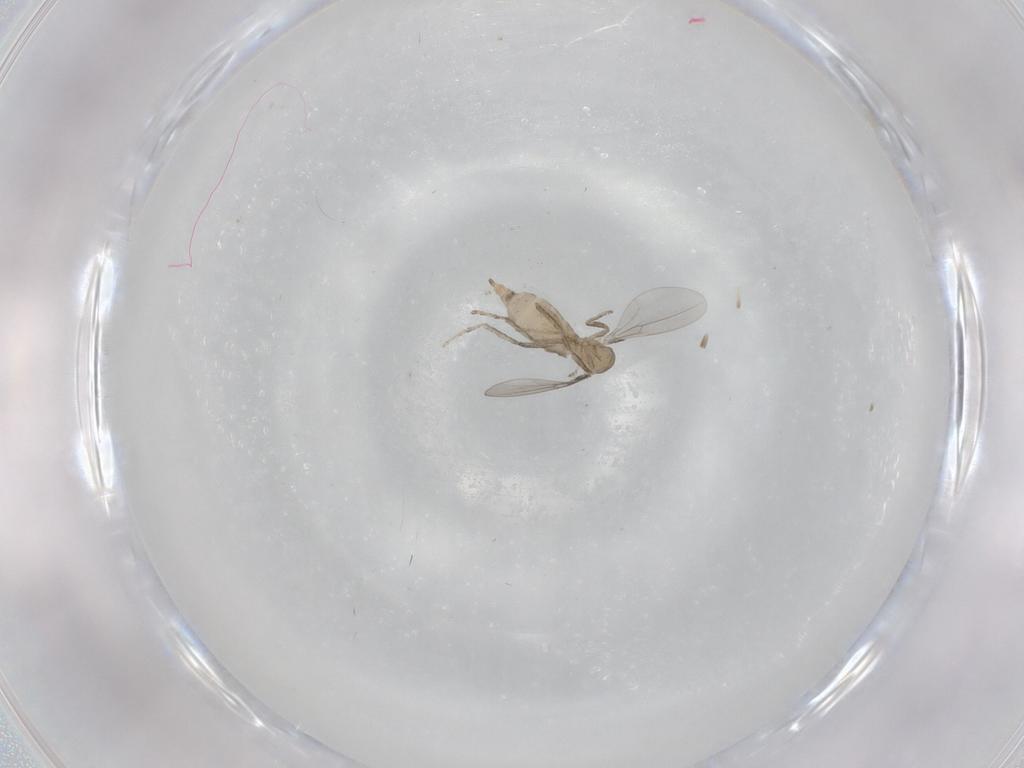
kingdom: Animalia
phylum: Arthropoda
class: Insecta
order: Diptera
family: Cecidomyiidae
